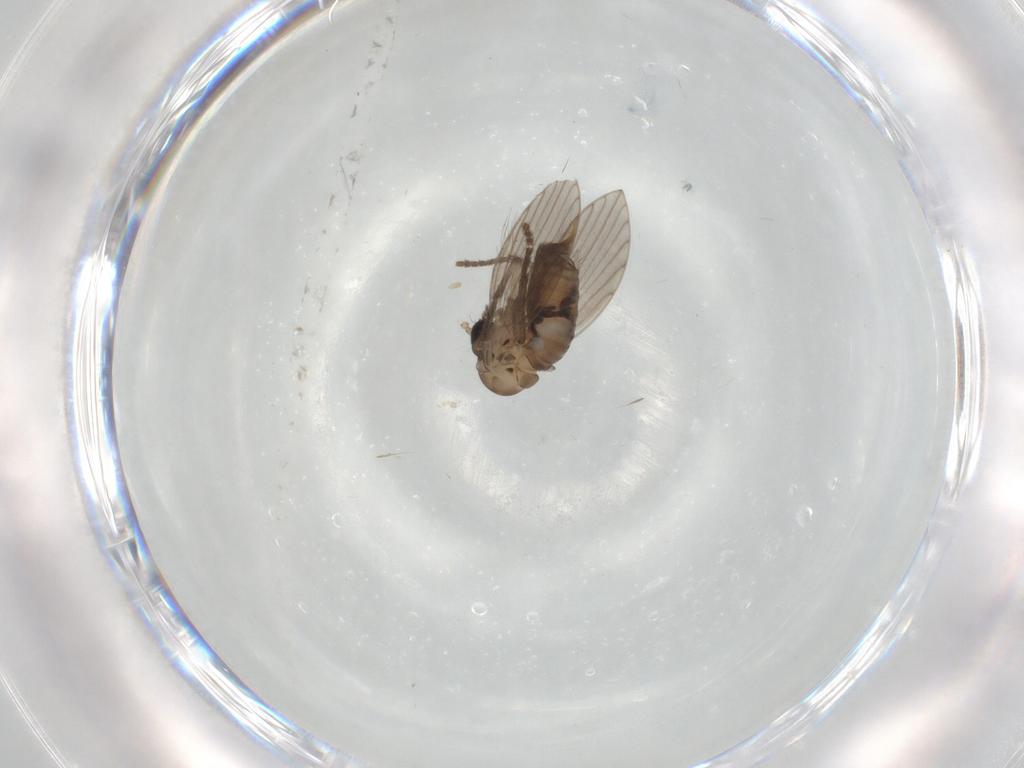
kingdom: Animalia
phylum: Arthropoda
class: Insecta
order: Diptera
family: Psychodidae
